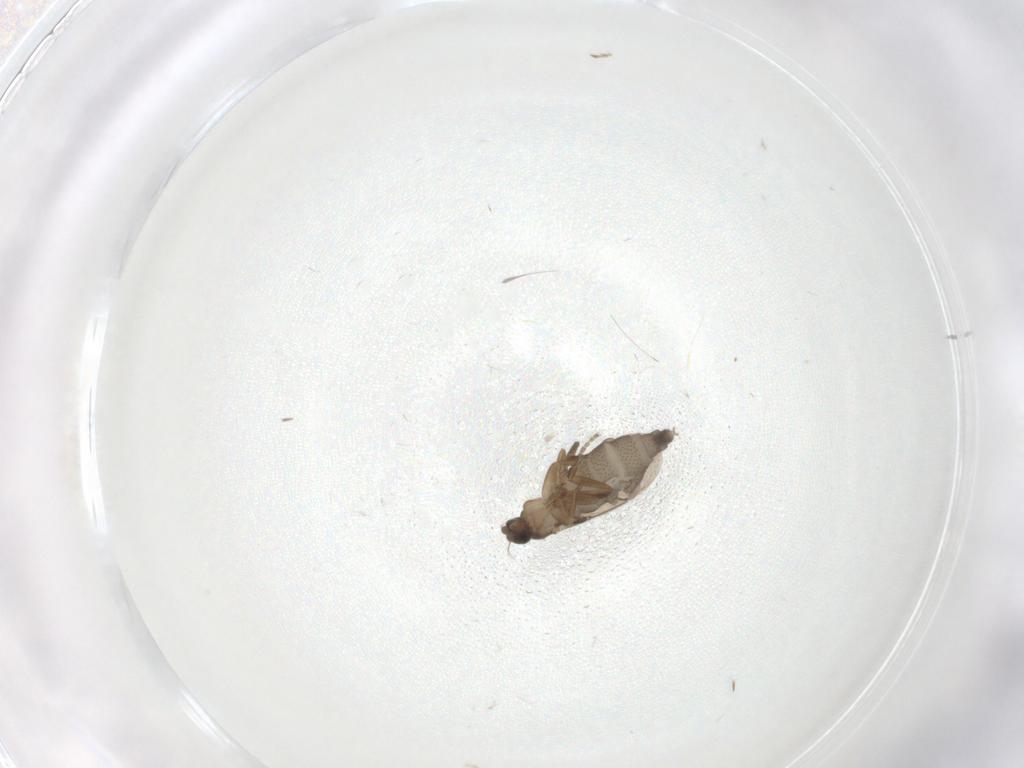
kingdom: Animalia
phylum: Arthropoda
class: Insecta
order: Diptera
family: Phoridae
